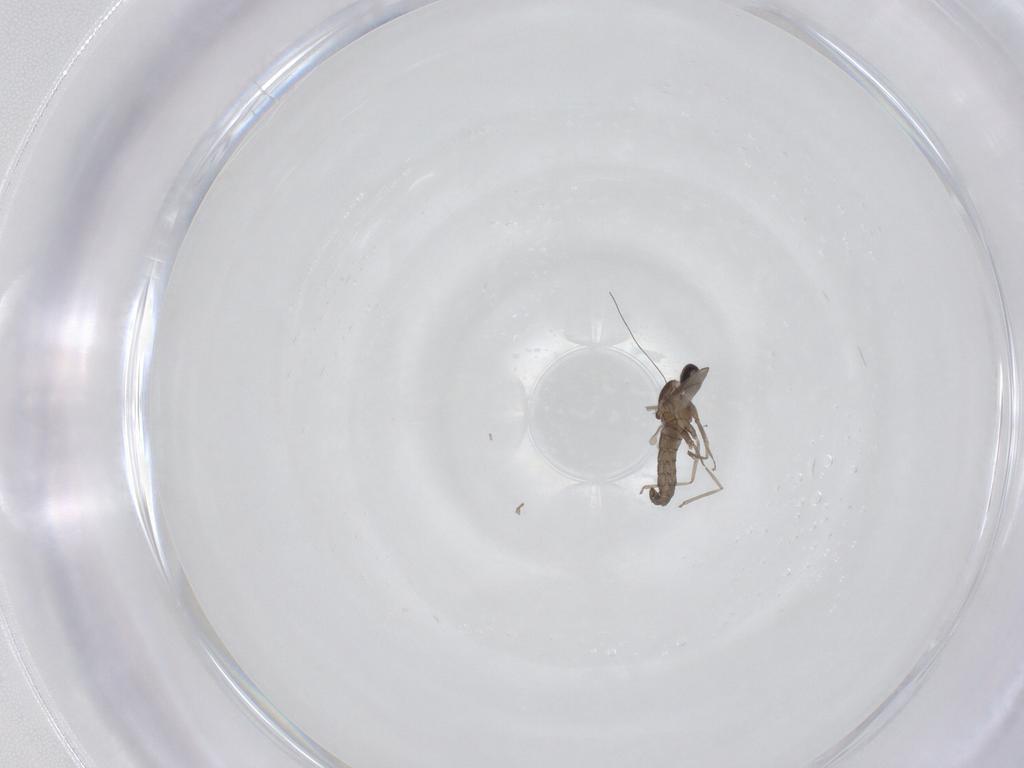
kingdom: Animalia
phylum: Arthropoda
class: Insecta
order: Diptera
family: Cecidomyiidae
